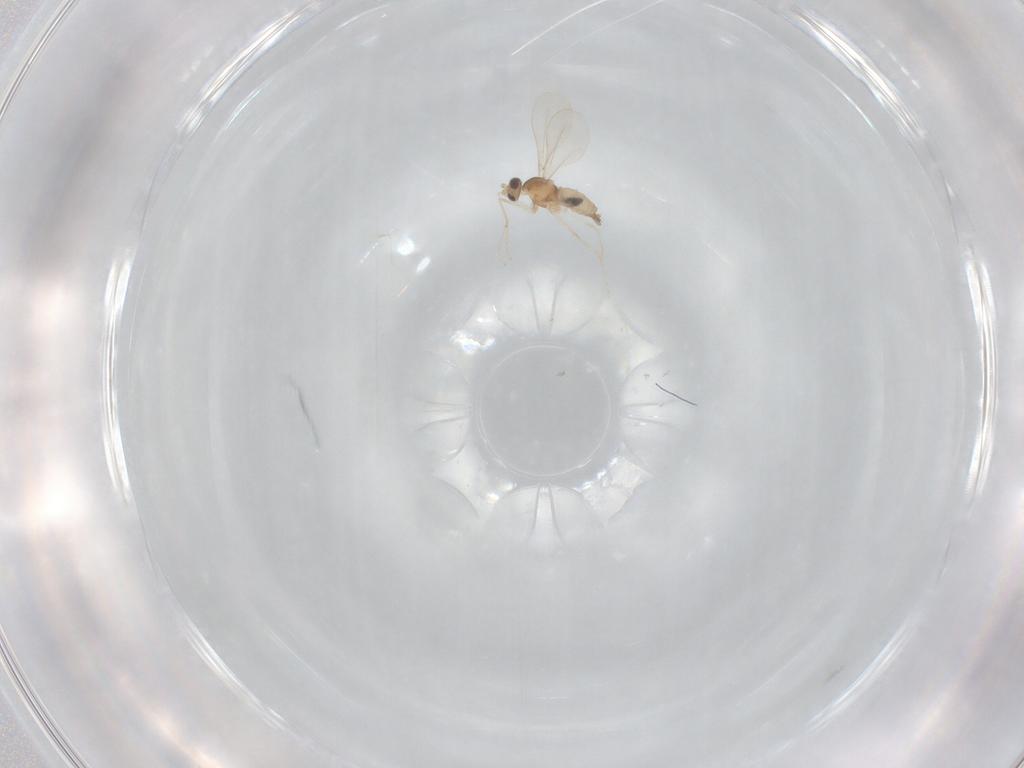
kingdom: Animalia
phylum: Arthropoda
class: Insecta
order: Diptera
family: Cecidomyiidae
